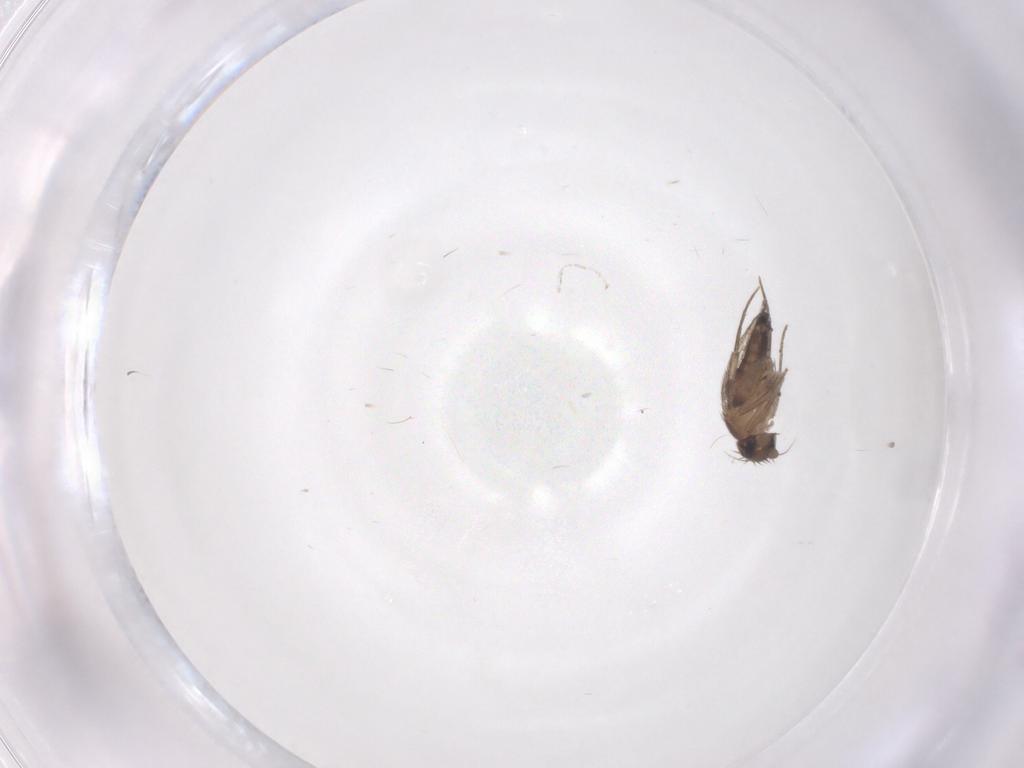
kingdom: Animalia
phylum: Arthropoda
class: Insecta
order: Diptera
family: Phoridae
